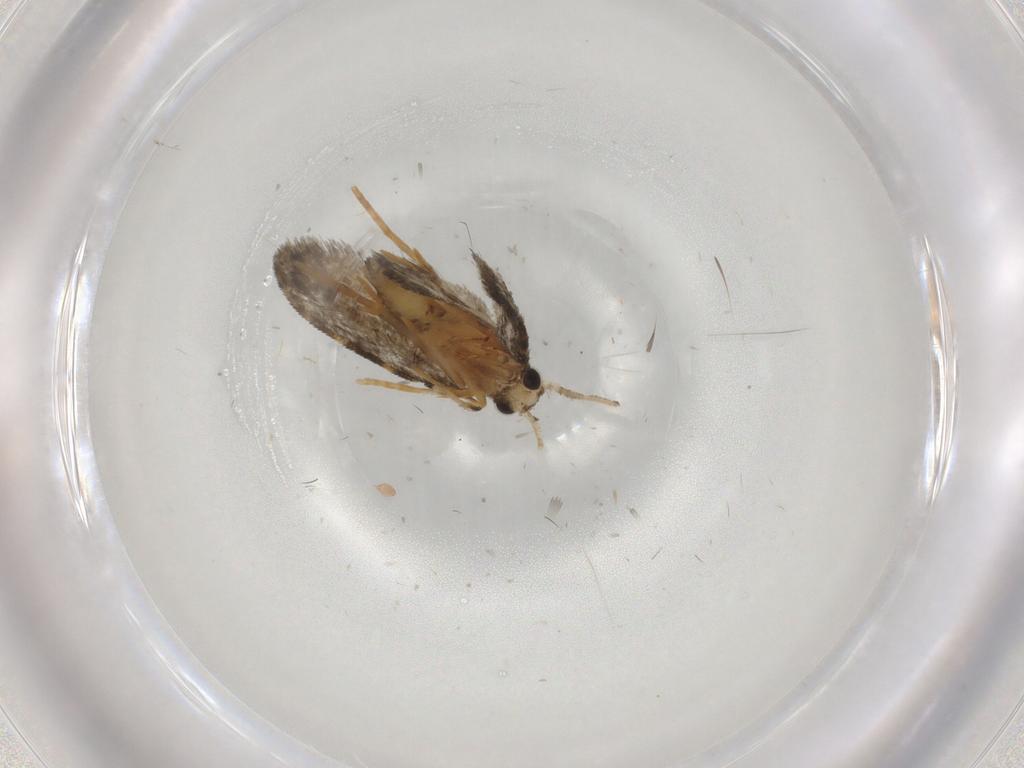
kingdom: Animalia
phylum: Arthropoda
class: Insecta
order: Lepidoptera
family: Psychidae
